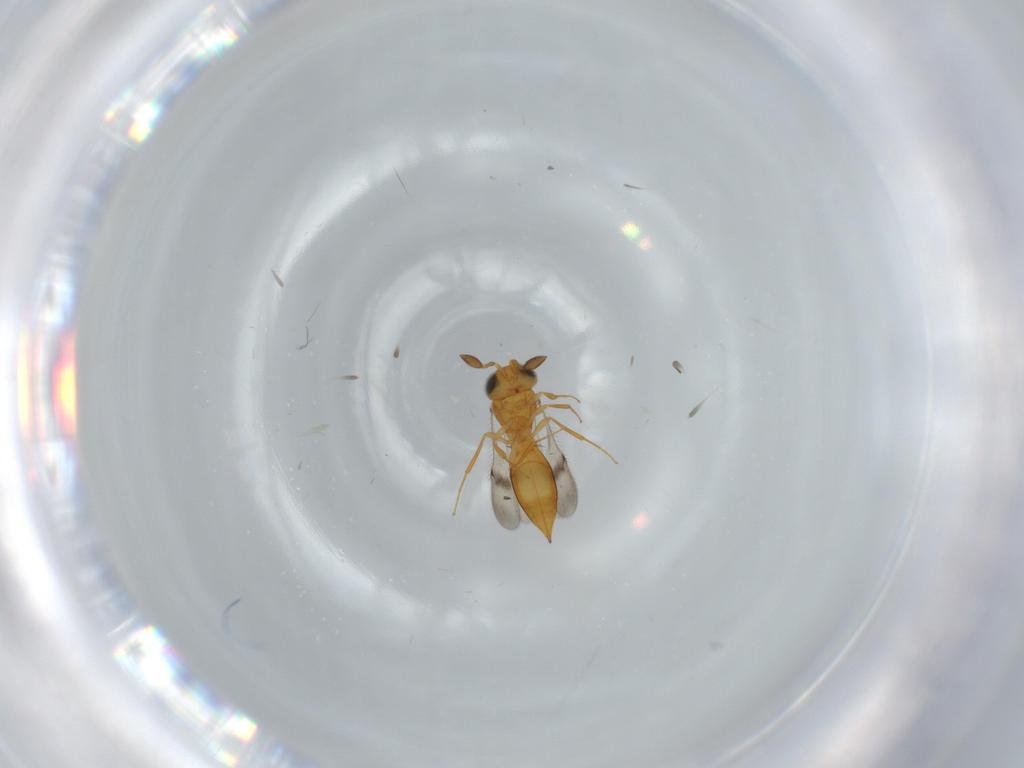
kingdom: Animalia
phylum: Arthropoda
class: Insecta
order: Hymenoptera
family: Scelionidae
